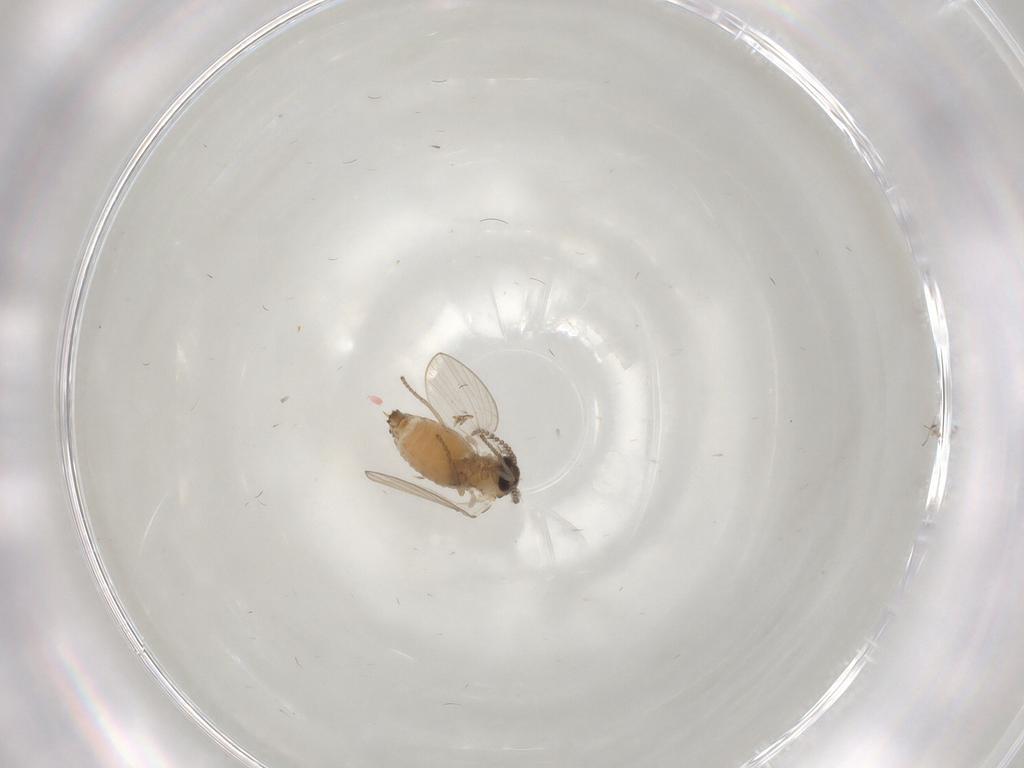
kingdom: Animalia
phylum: Arthropoda
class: Insecta
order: Diptera
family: Psychodidae
